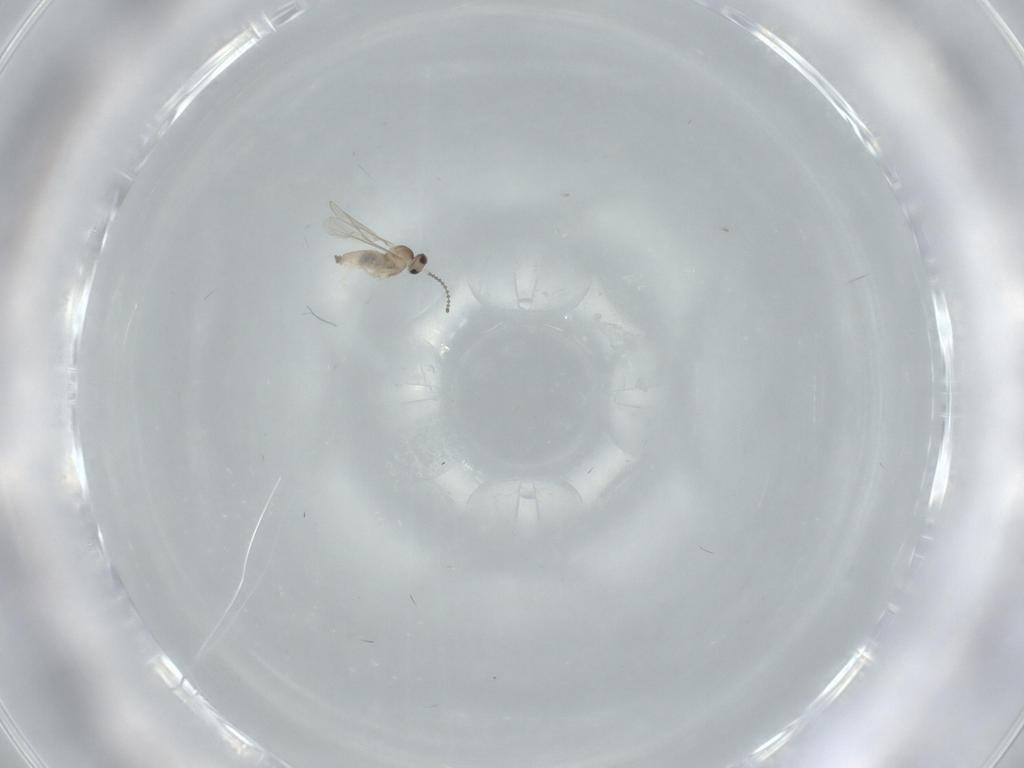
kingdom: Animalia
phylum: Arthropoda
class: Insecta
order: Diptera
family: Cecidomyiidae
